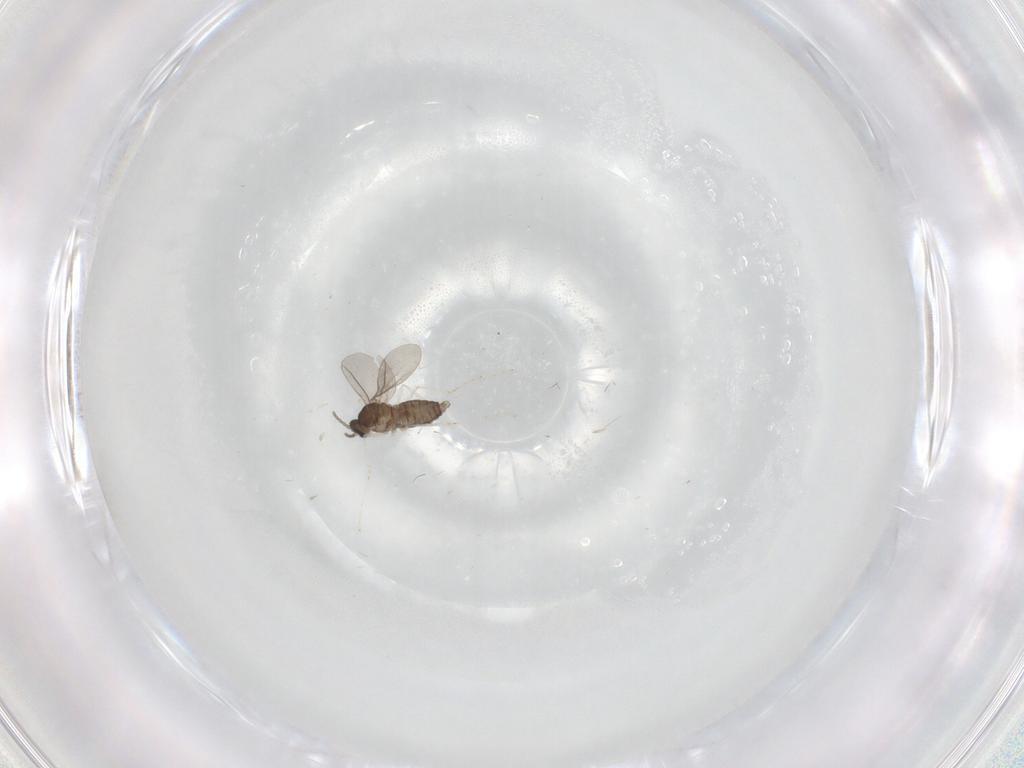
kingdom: Animalia
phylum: Arthropoda
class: Insecta
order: Diptera
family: Cecidomyiidae
